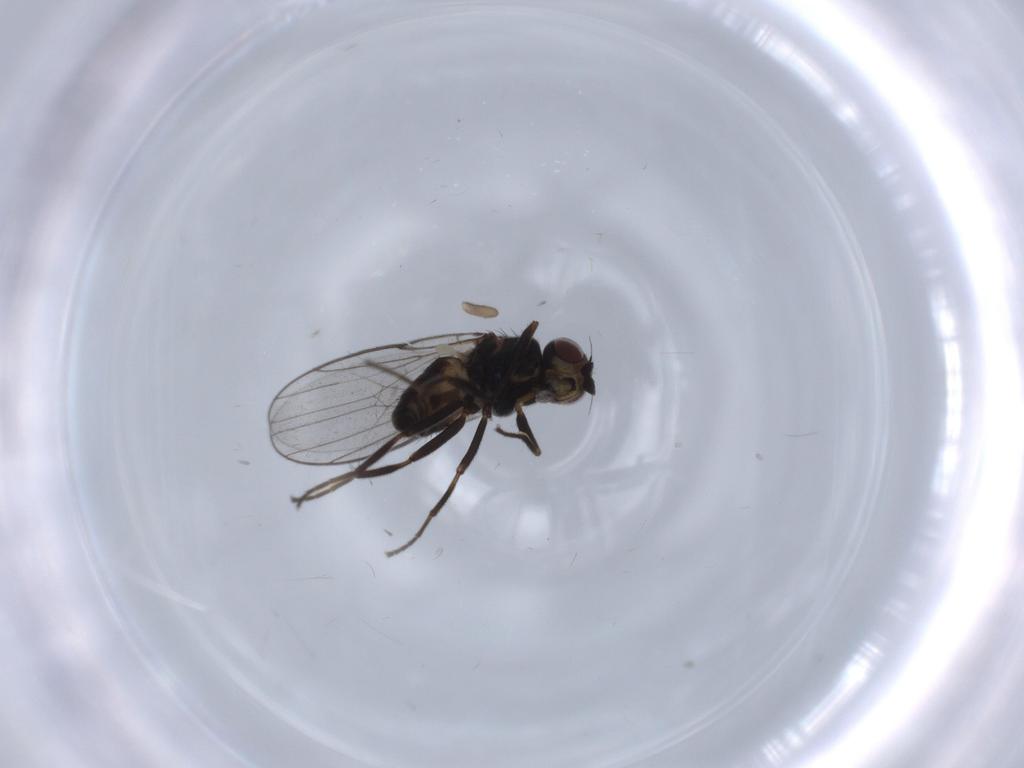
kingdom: Animalia
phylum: Arthropoda
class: Insecta
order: Diptera
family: Chloropidae
